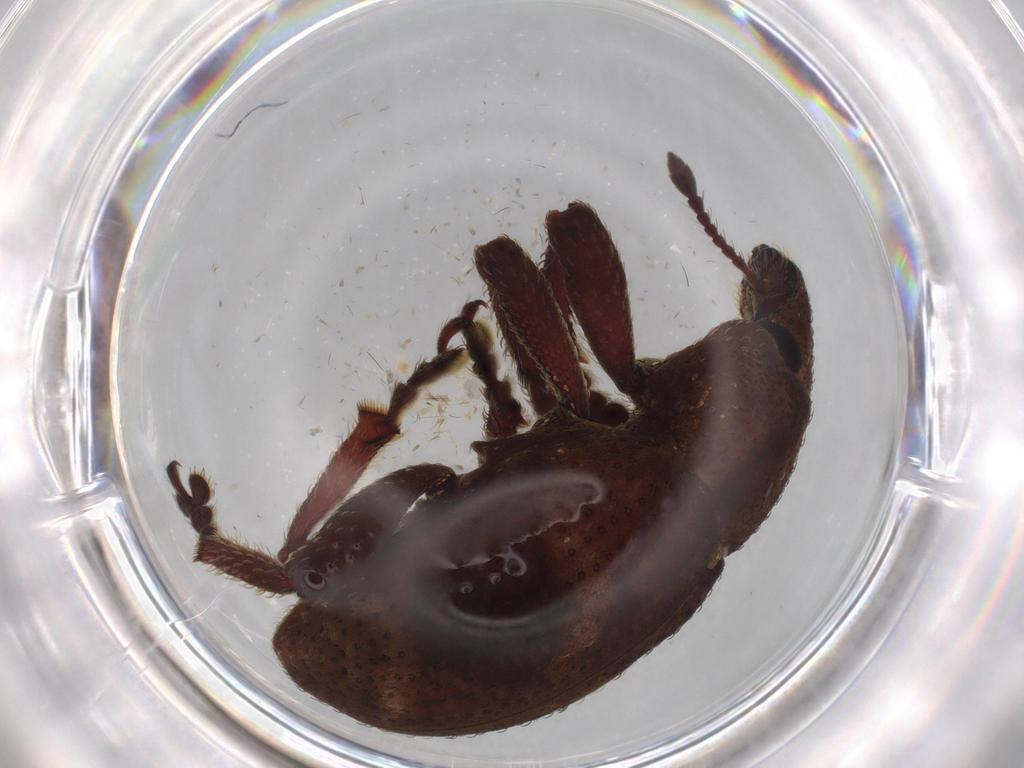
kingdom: Animalia
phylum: Arthropoda
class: Insecta
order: Coleoptera
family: Curculionidae
